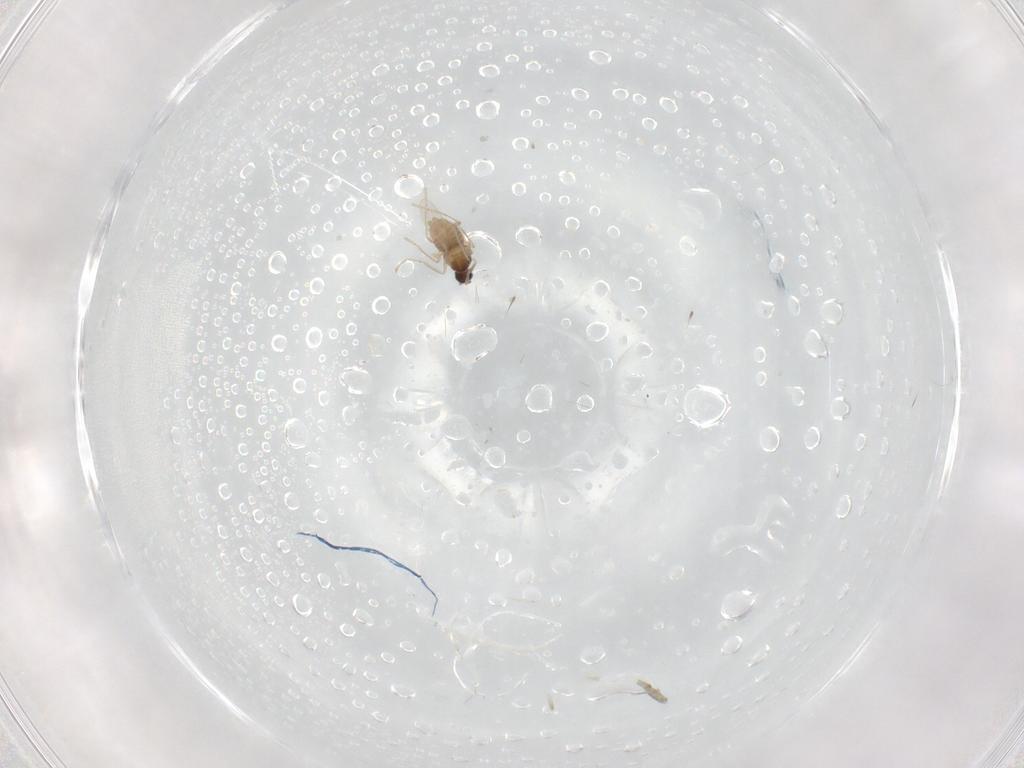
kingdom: Animalia
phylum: Arthropoda
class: Insecta
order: Diptera
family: Cecidomyiidae
